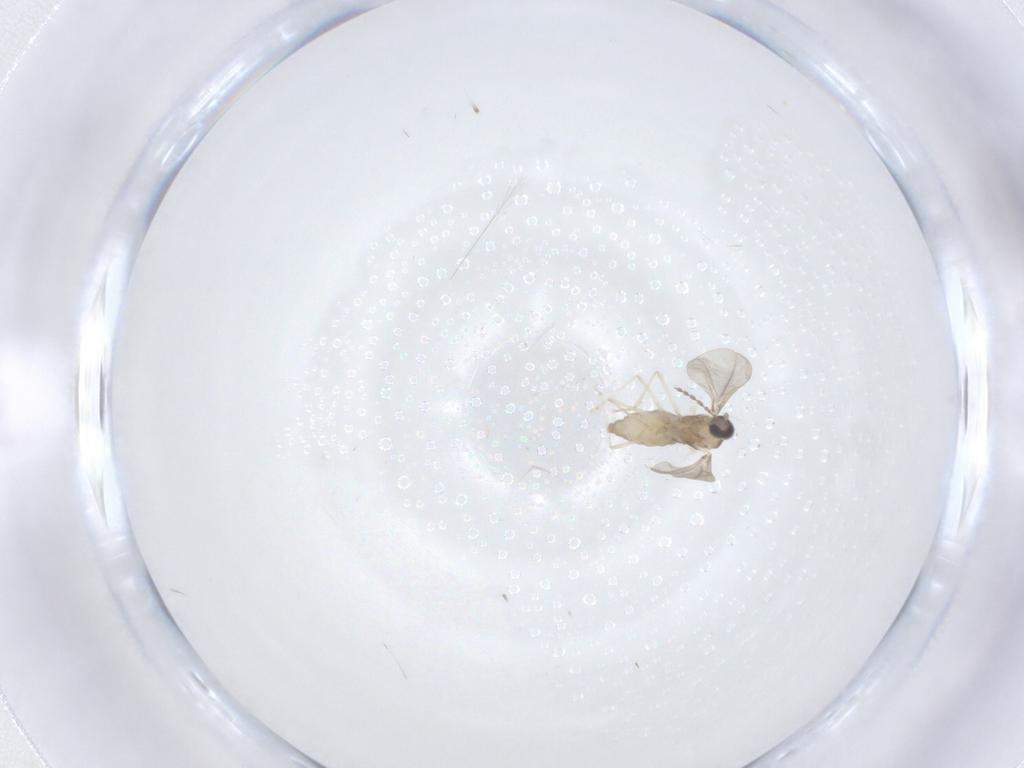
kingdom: Animalia
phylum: Arthropoda
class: Insecta
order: Diptera
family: Cecidomyiidae
